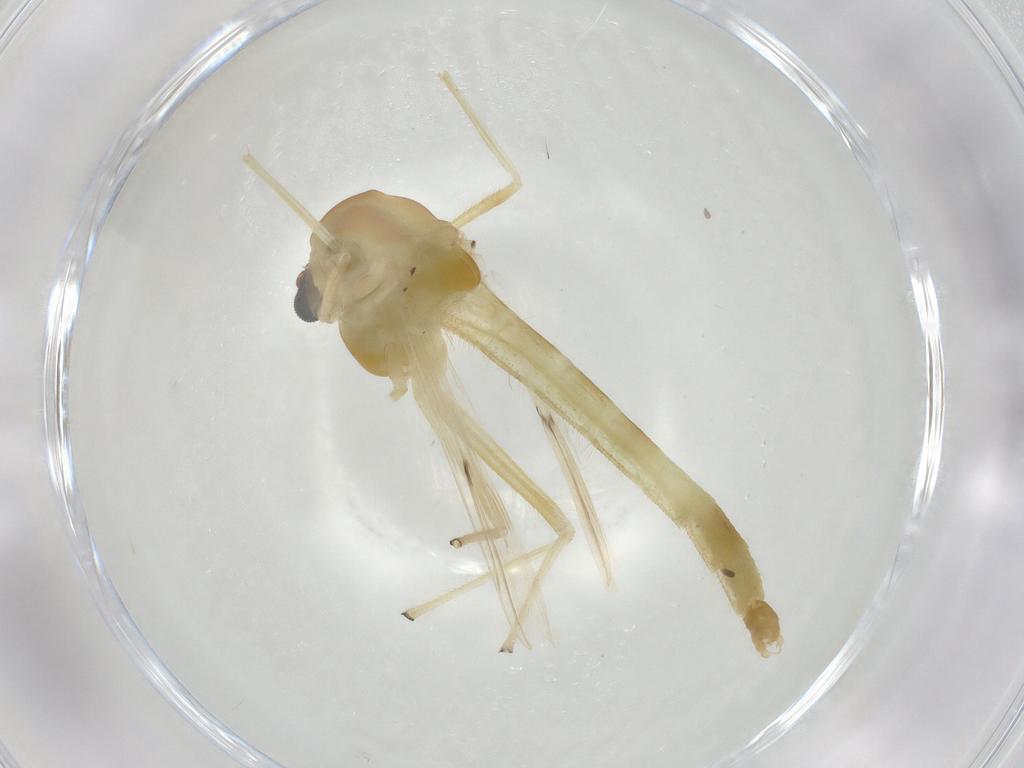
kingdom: Animalia
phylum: Arthropoda
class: Insecta
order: Diptera
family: Chironomidae
